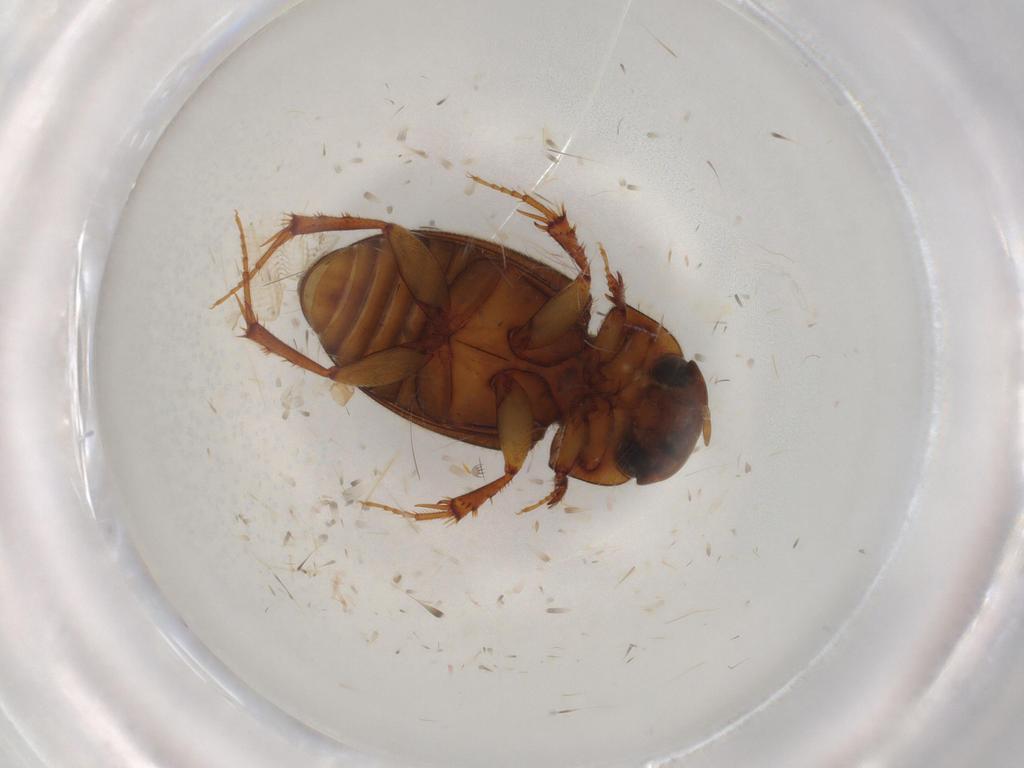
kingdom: Animalia
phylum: Arthropoda
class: Insecta
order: Coleoptera
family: Scarabaeidae
